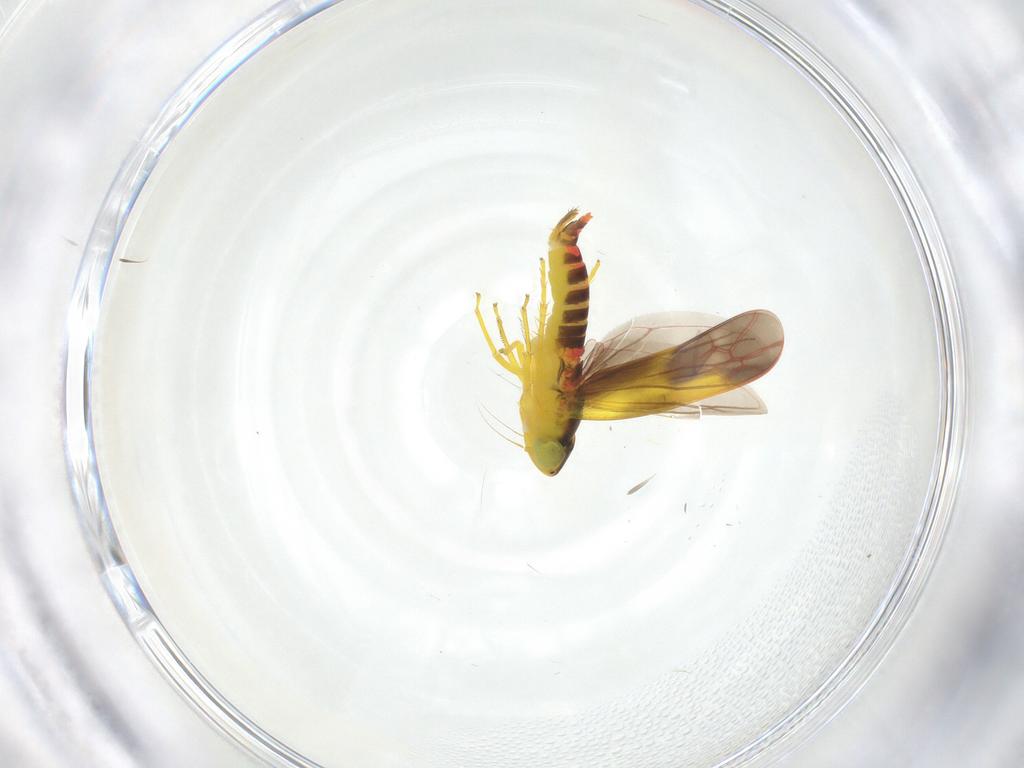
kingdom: Animalia
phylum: Arthropoda
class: Insecta
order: Hemiptera
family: Cicadellidae
